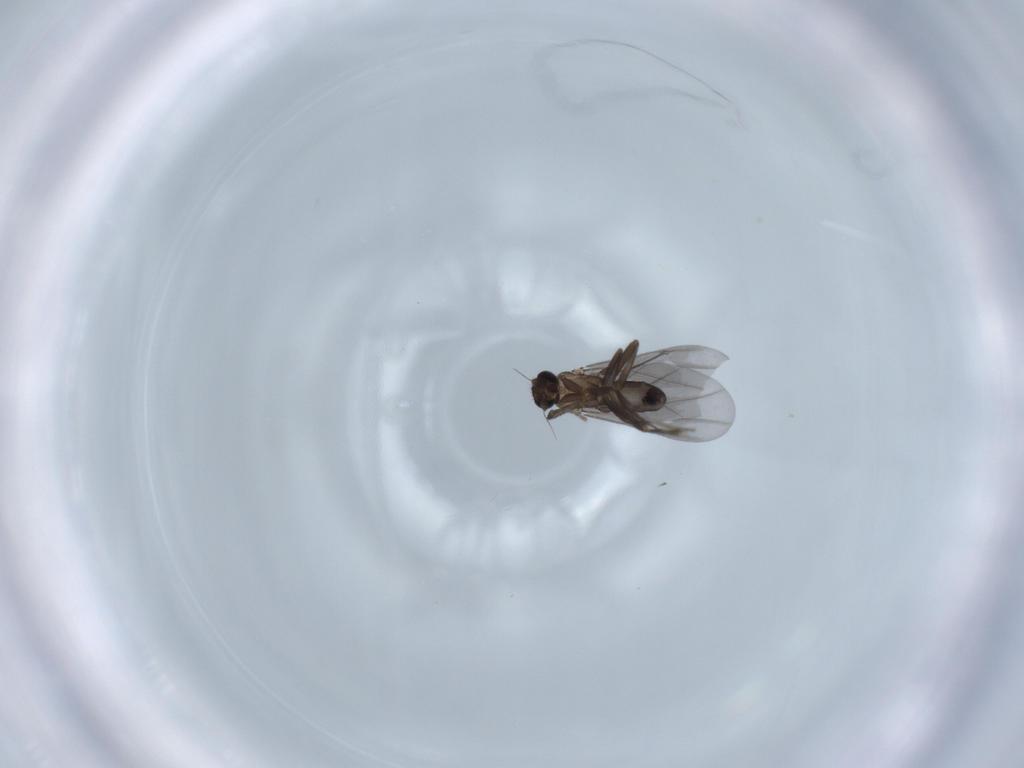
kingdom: Animalia
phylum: Arthropoda
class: Insecta
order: Diptera
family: Phoridae
